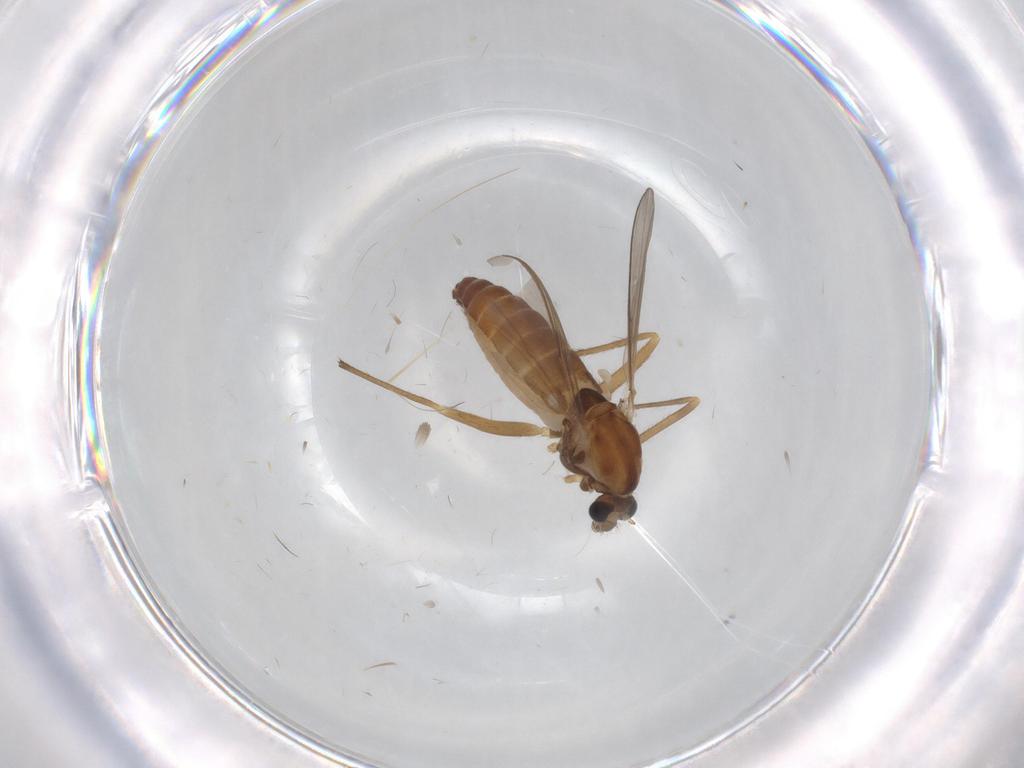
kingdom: Animalia
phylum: Arthropoda
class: Insecta
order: Diptera
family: Chironomidae
